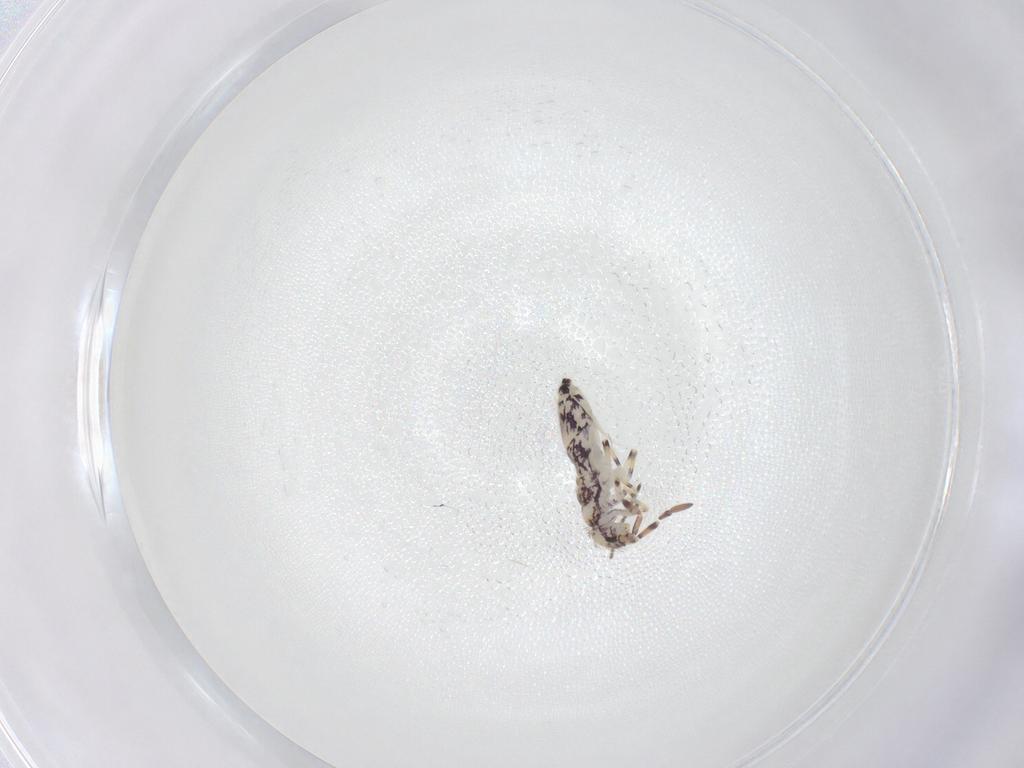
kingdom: Animalia
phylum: Arthropoda
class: Collembola
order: Entomobryomorpha
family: Entomobryidae
